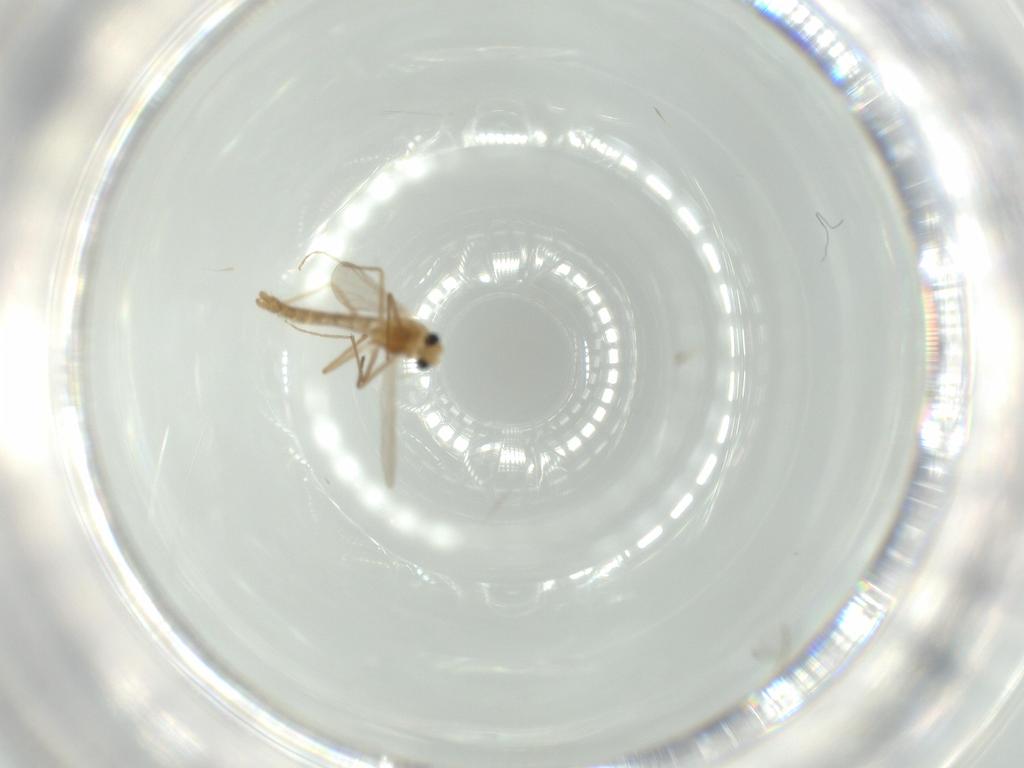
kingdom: Animalia
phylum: Arthropoda
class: Insecta
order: Diptera
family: Chironomidae
